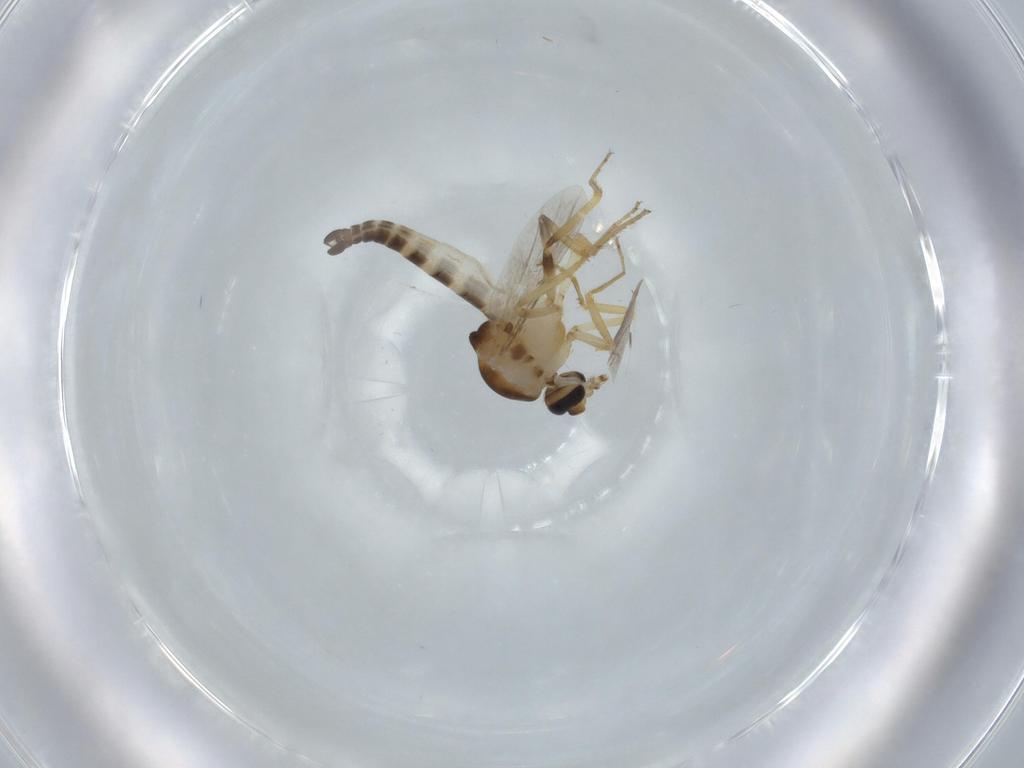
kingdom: Animalia
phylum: Arthropoda
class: Insecta
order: Diptera
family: Ceratopogonidae
